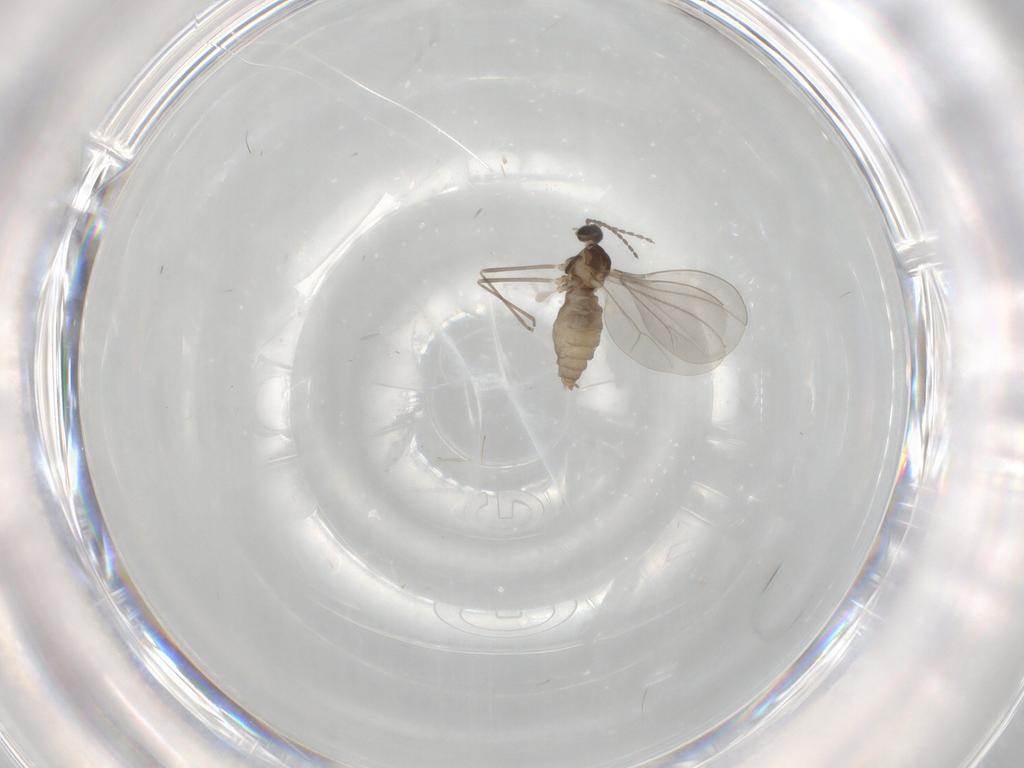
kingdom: Animalia
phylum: Arthropoda
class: Insecta
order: Diptera
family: Cecidomyiidae
